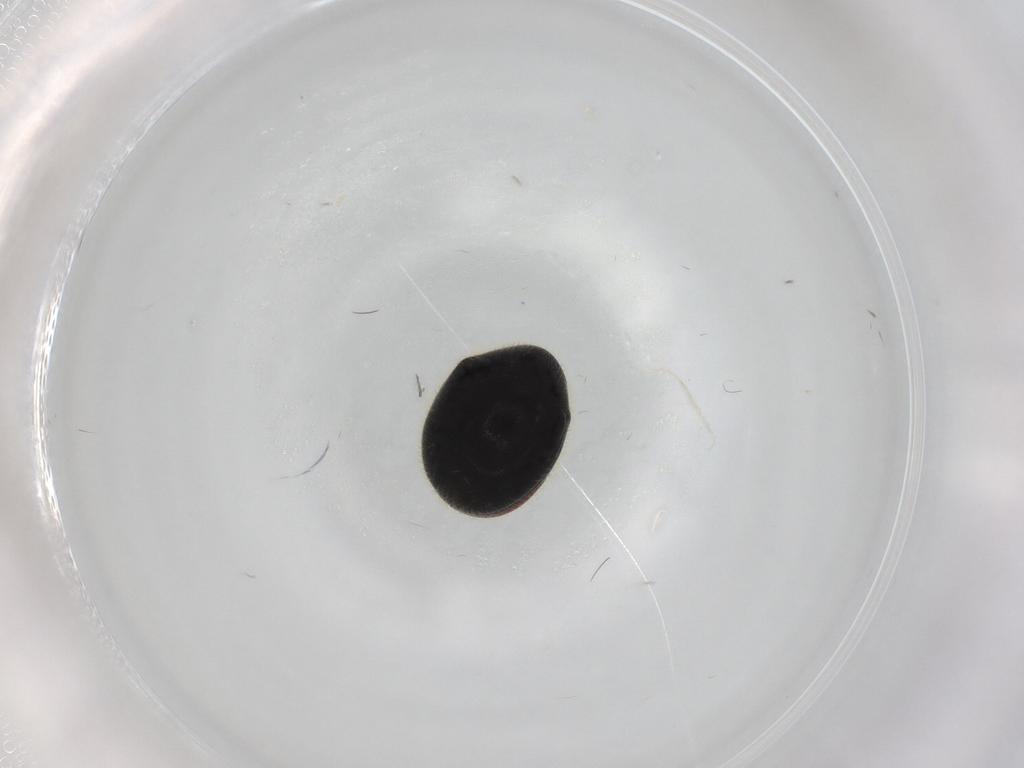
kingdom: Animalia
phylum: Arthropoda
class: Insecta
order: Coleoptera
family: Ptinidae
